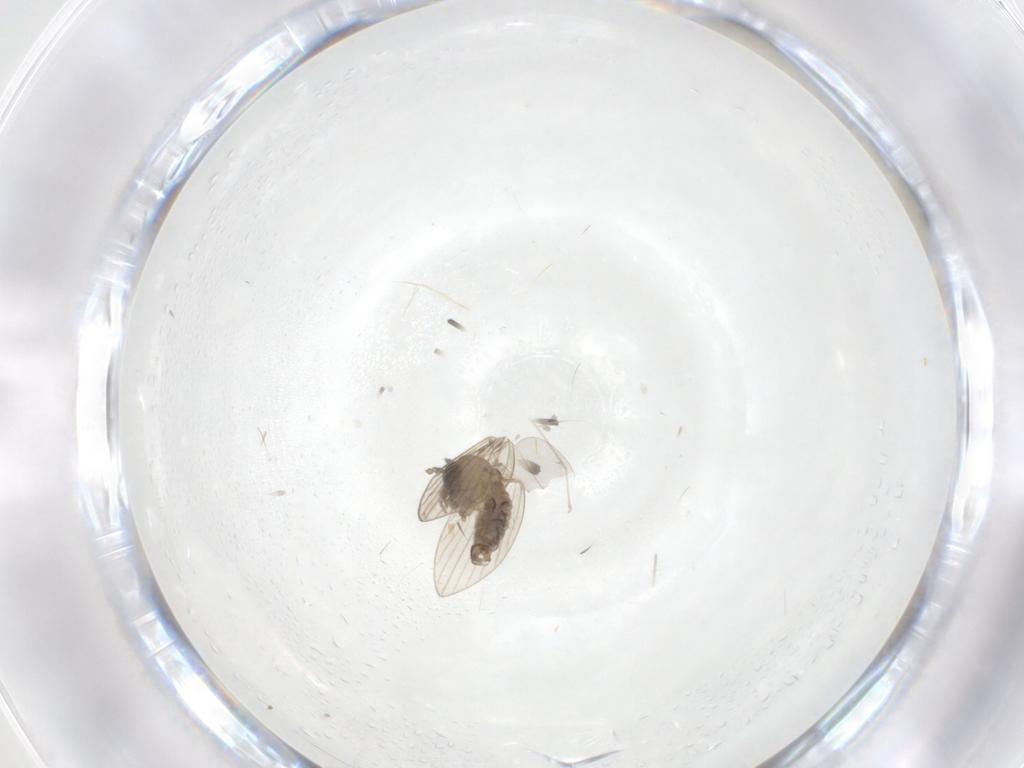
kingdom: Animalia
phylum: Arthropoda
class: Insecta
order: Diptera
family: Psychodidae
